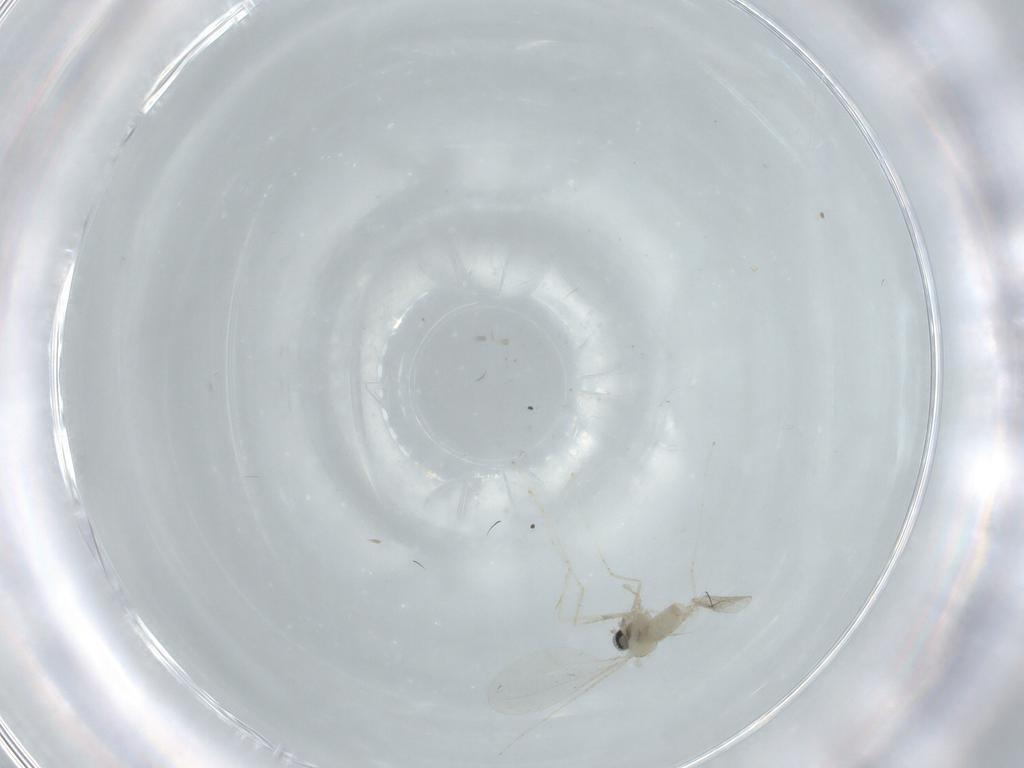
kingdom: Animalia
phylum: Arthropoda
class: Insecta
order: Diptera
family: Cecidomyiidae
